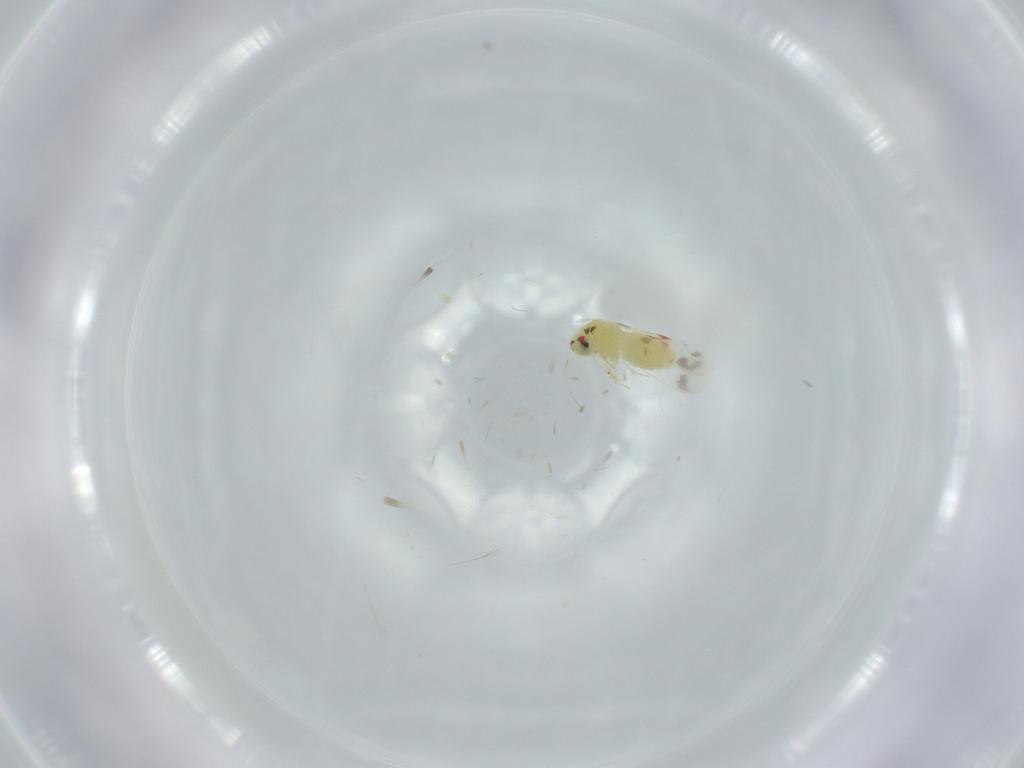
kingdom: Animalia
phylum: Arthropoda
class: Insecta
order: Hemiptera
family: Aleyrodidae
